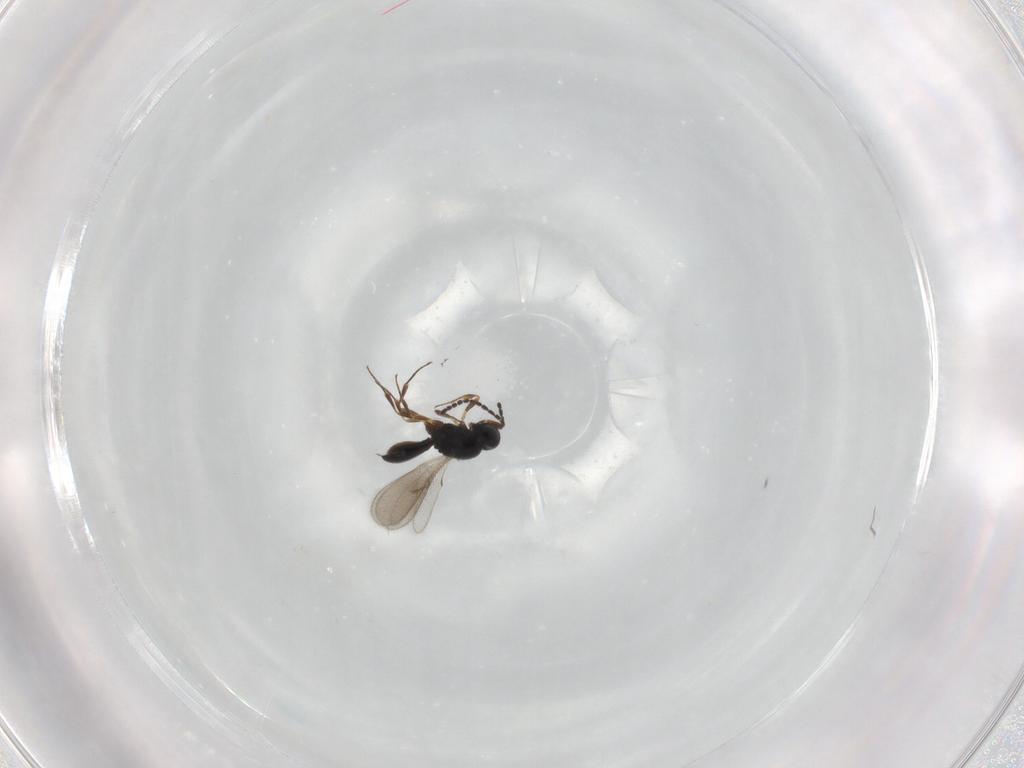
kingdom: Animalia
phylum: Arthropoda
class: Insecta
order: Hymenoptera
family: Scelionidae
